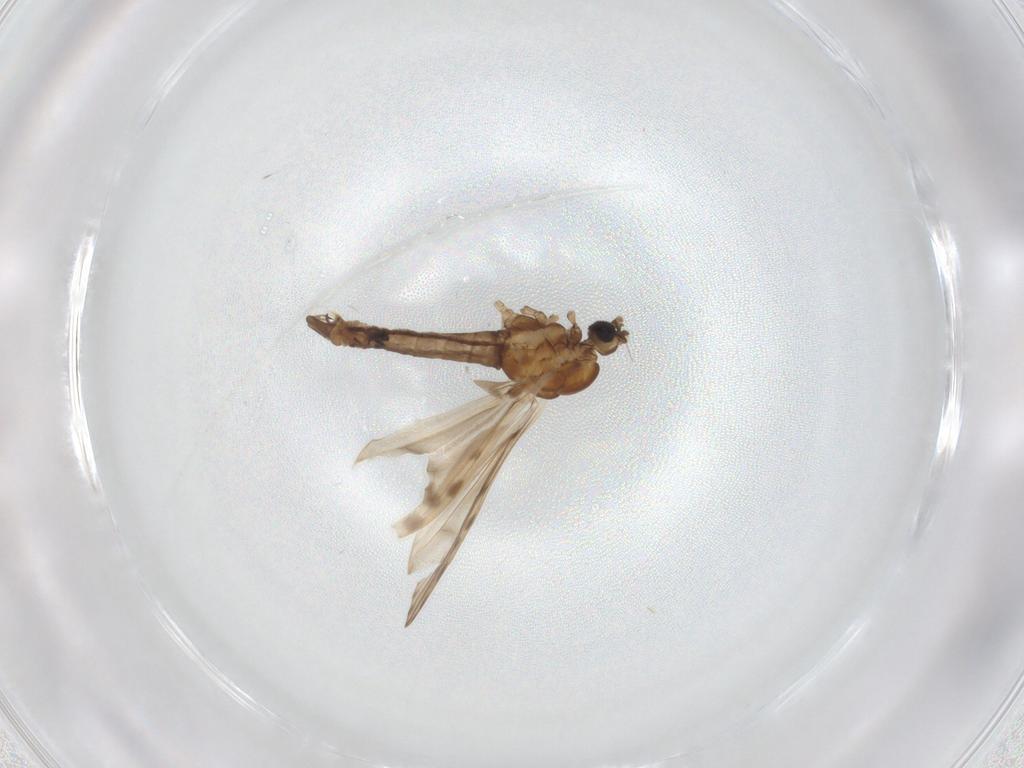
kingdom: Animalia
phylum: Arthropoda
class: Insecta
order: Diptera
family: Limoniidae
